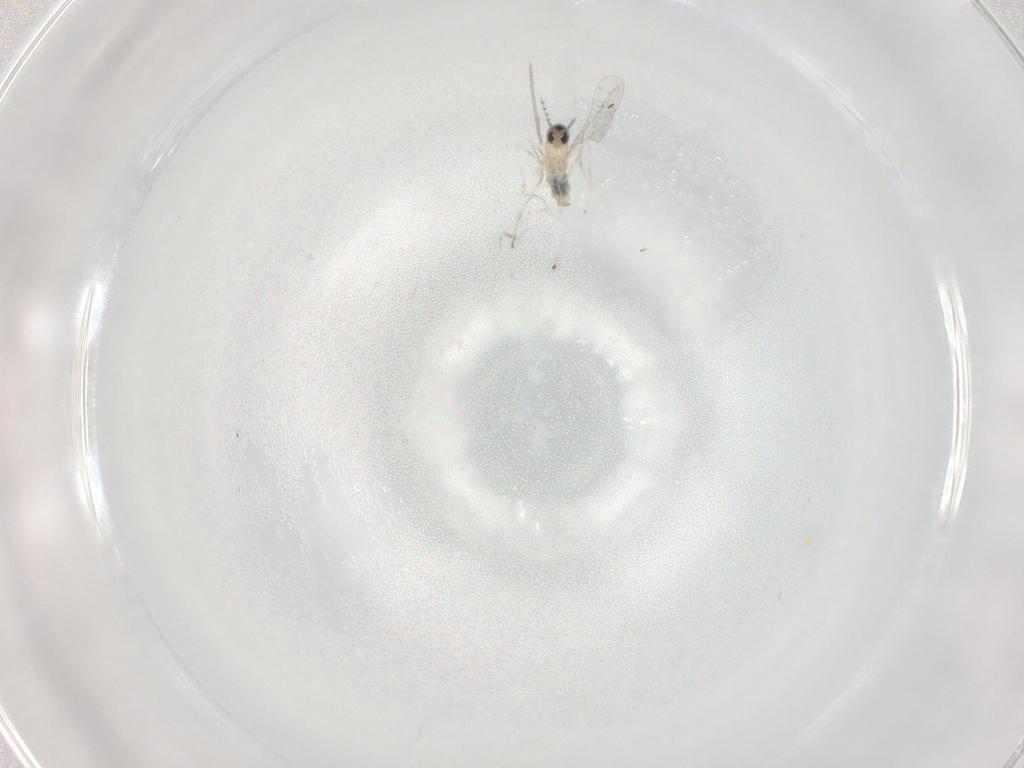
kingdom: Animalia
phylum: Arthropoda
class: Insecta
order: Diptera
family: Cecidomyiidae
